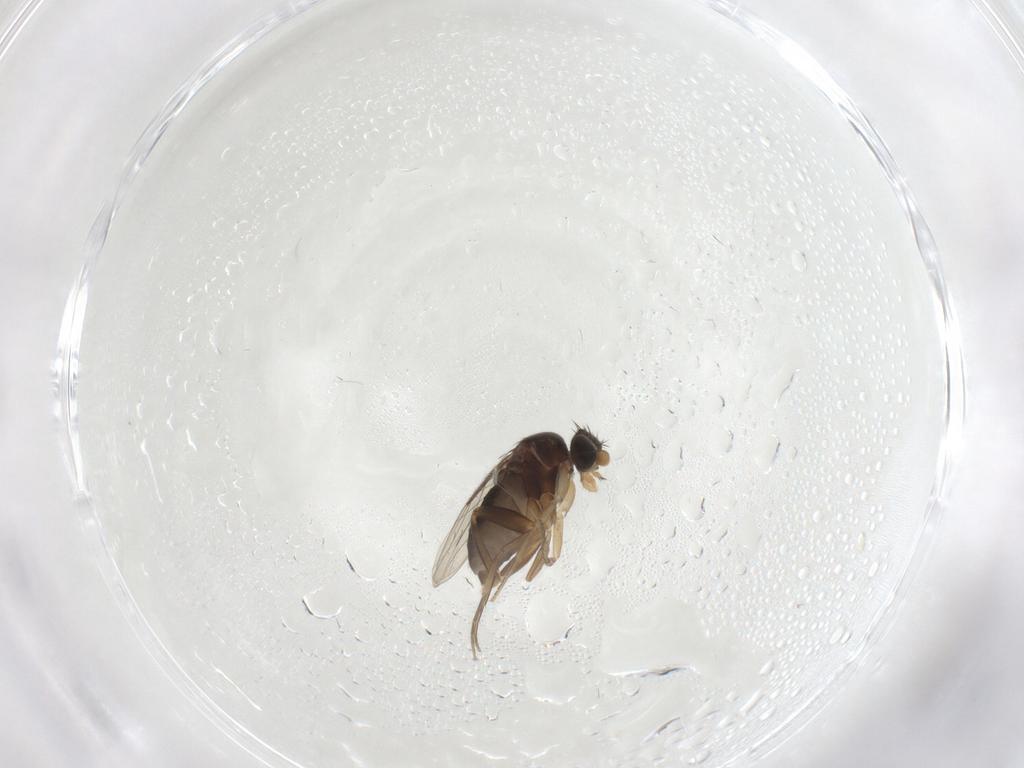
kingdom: Animalia
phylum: Arthropoda
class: Insecta
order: Diptera
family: Phoridae
